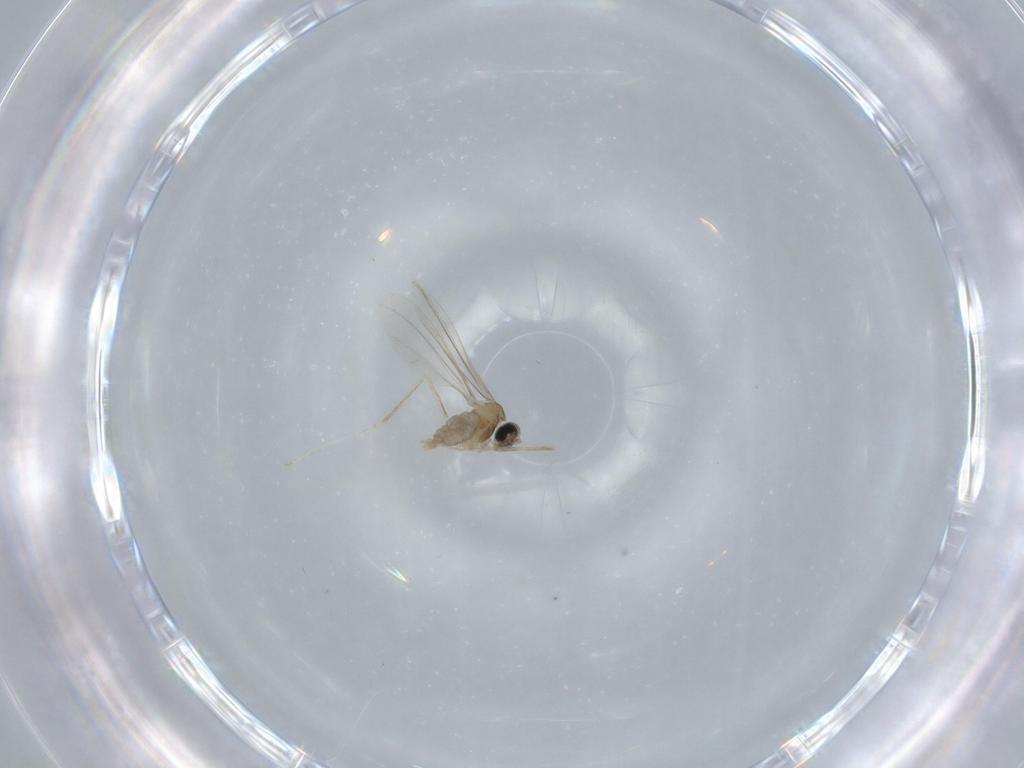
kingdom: Animalia
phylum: Arthropoda
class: Insecta
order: Diptera
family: Cecidomyiidae
